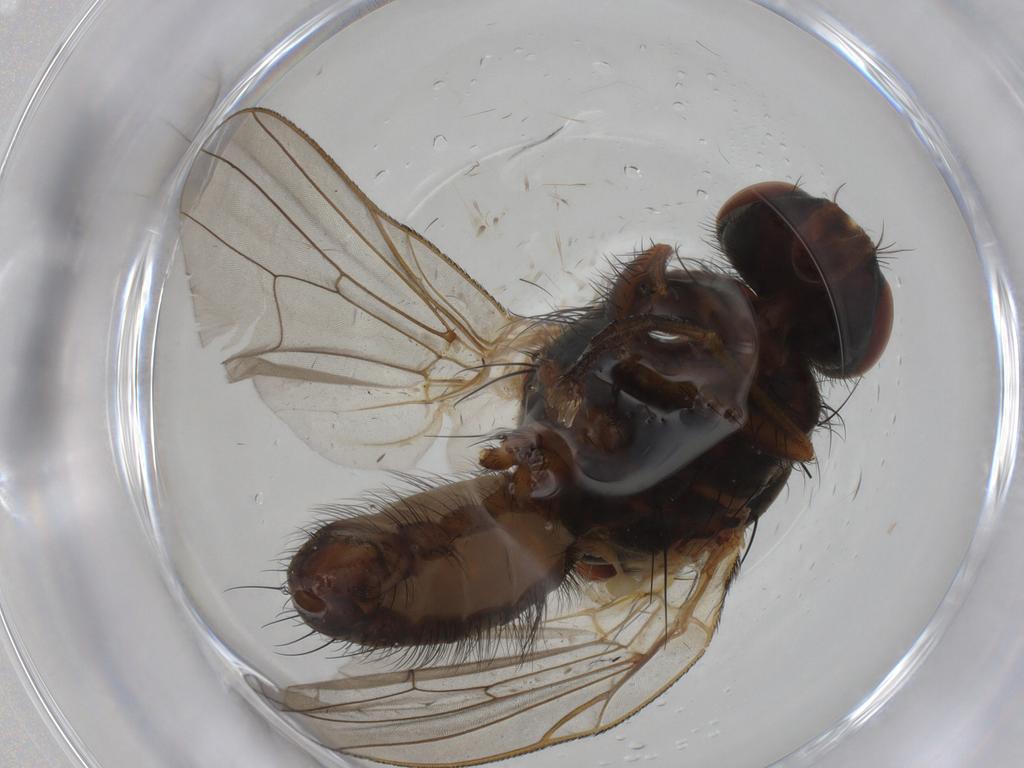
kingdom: Animalia
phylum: Arthropoda
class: Insecta
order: Diptera
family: Anthomyiidae
